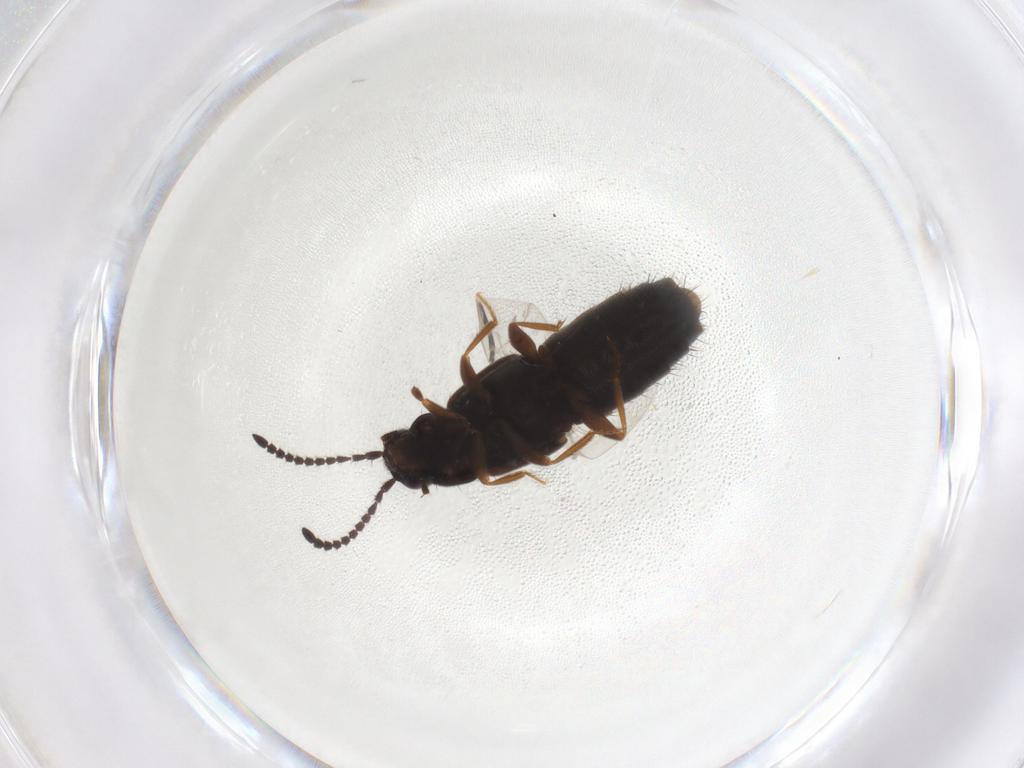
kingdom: Animalia
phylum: Arthropoda
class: Insecta
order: Coleoptera
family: Staphylinidae
